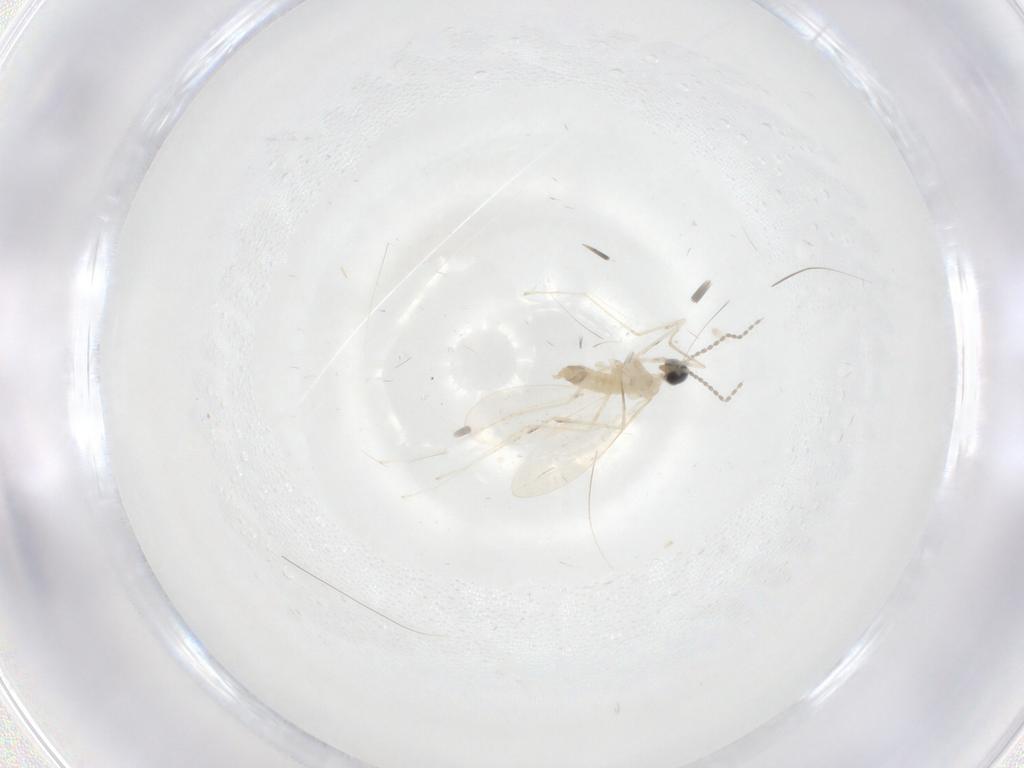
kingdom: Animalia
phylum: Arthropoda
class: Insecta
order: Diptera
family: Cecidomyiidae
